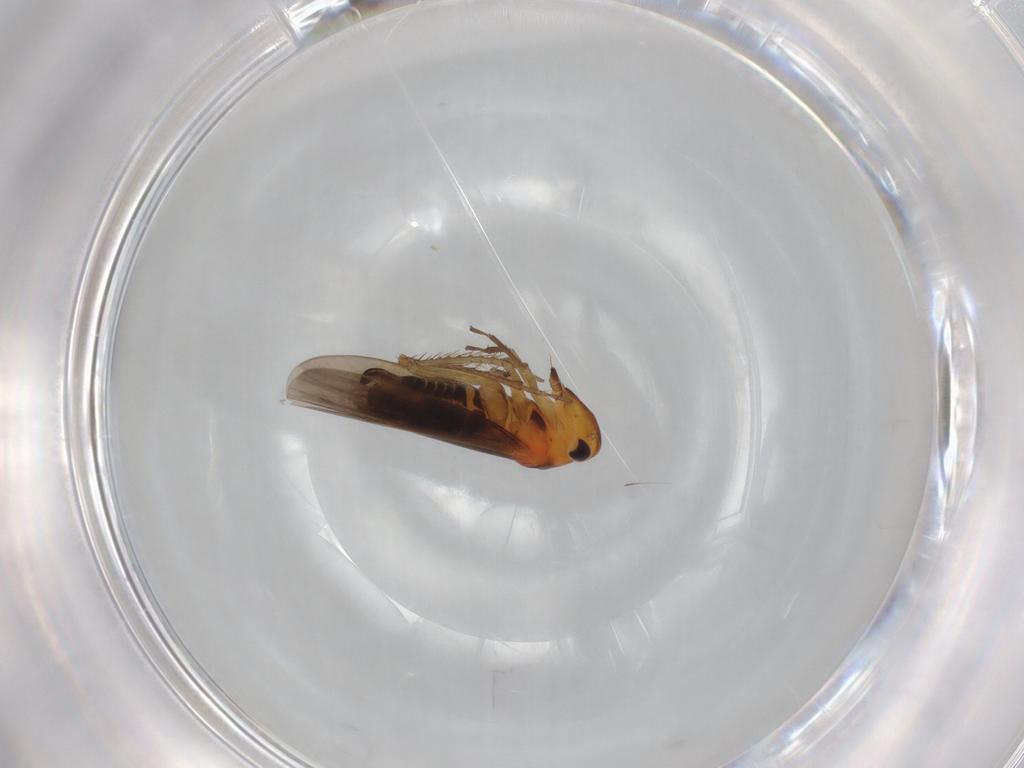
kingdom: Animalia
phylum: Arthropoda
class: Insecta
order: Hemiptera
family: Cicadellidae
